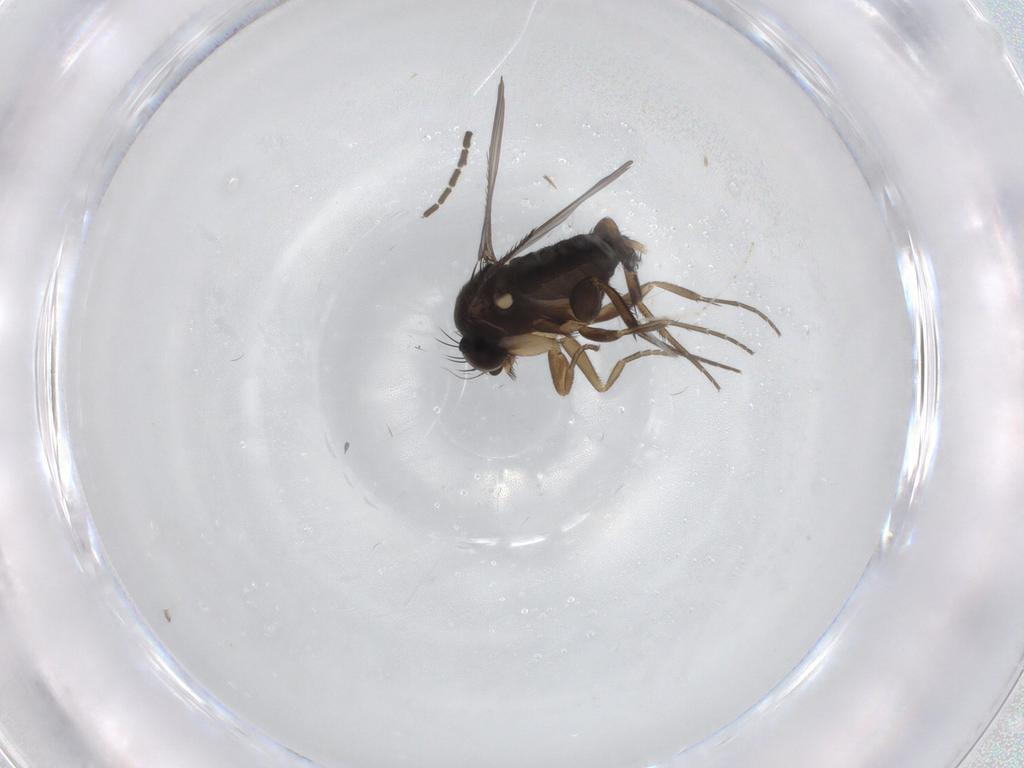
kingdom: Animalia
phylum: Arthropoda
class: Insecta
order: Diptera
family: Phoridae
